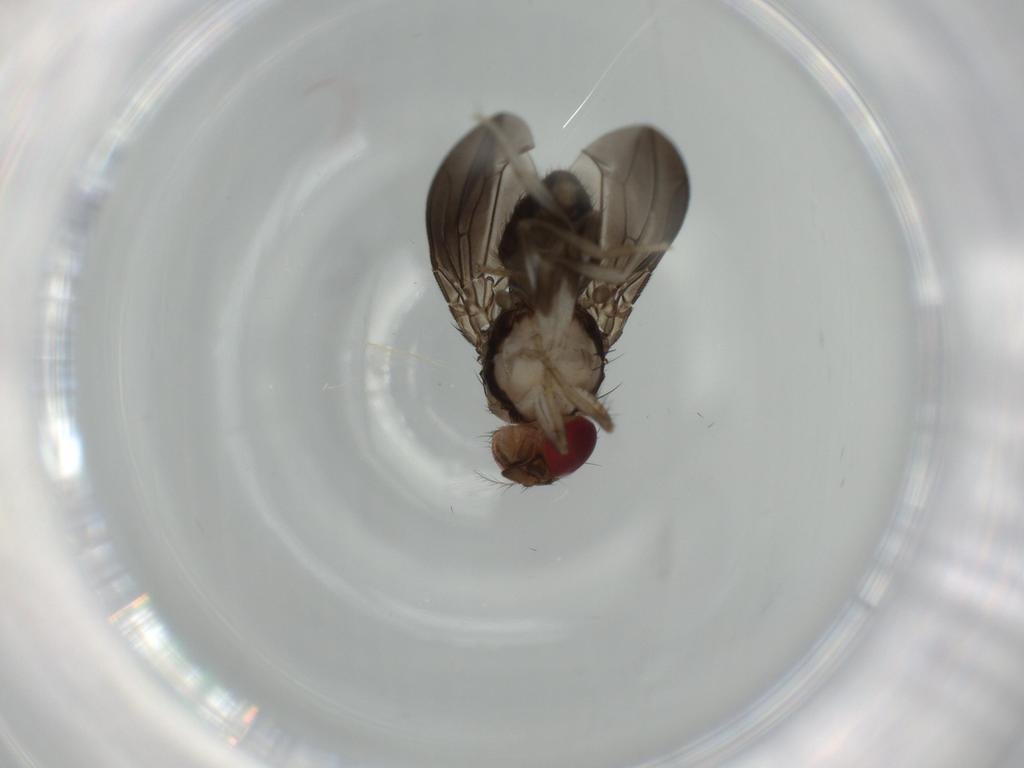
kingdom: Animalia
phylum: Arthropoda
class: Insecta
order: Diptera
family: Drosophilidae
